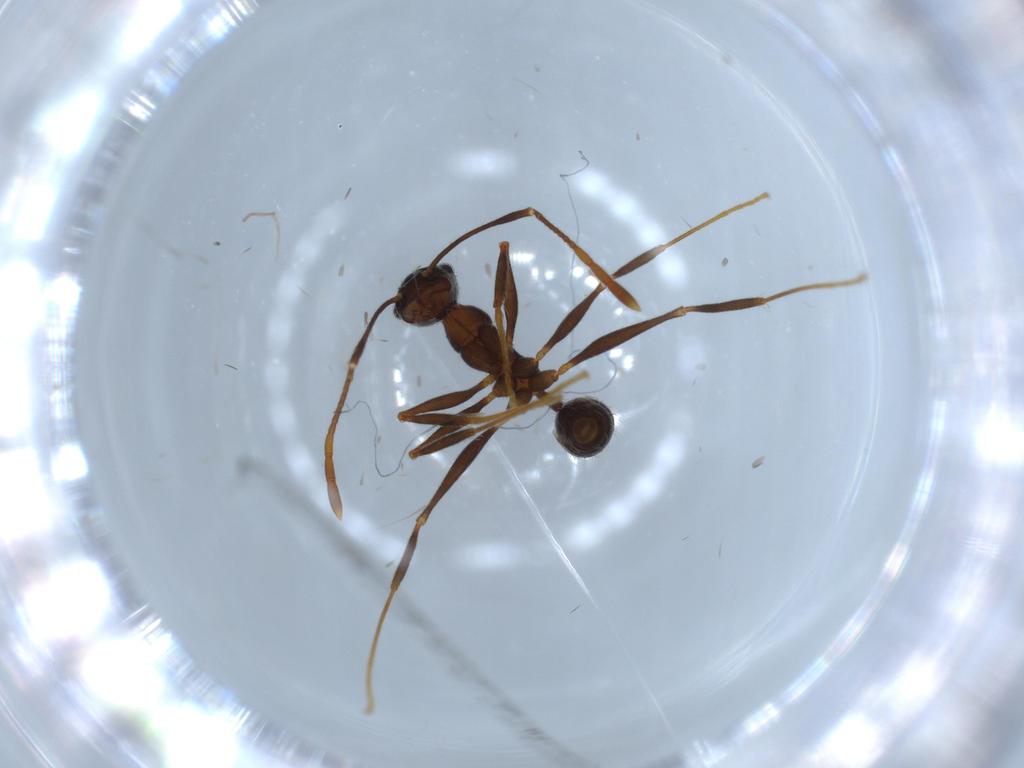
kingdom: Animalia
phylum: Arthropoda
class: Insecta
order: Hymenoptera
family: Formicidae
